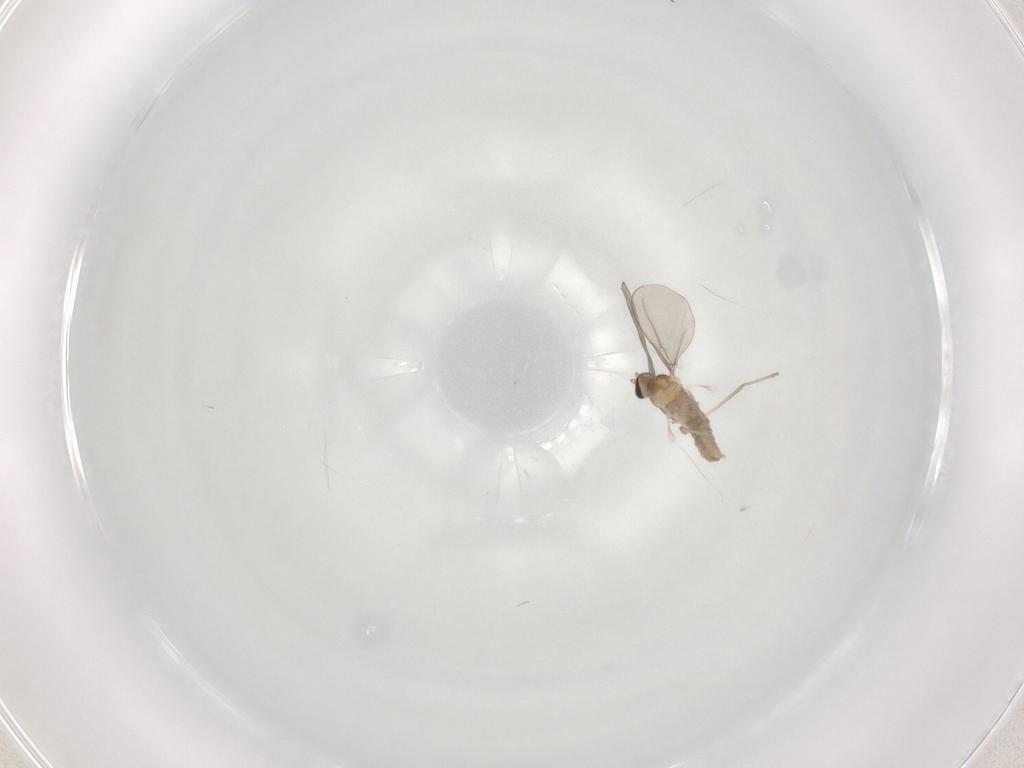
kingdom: Animalia
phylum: Arthropoda
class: Insecta
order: Diptera
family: Cecidomyiidae
